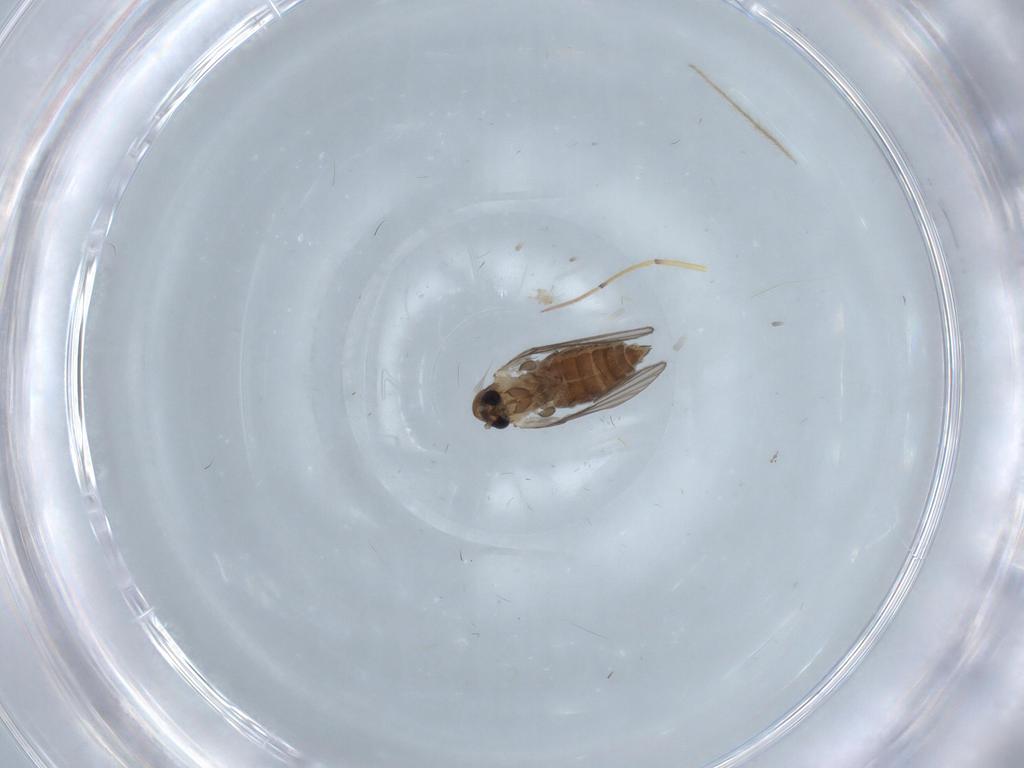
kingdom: Animalia
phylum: Arthropoda
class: Insecta
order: Diptera
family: Psychodidae
